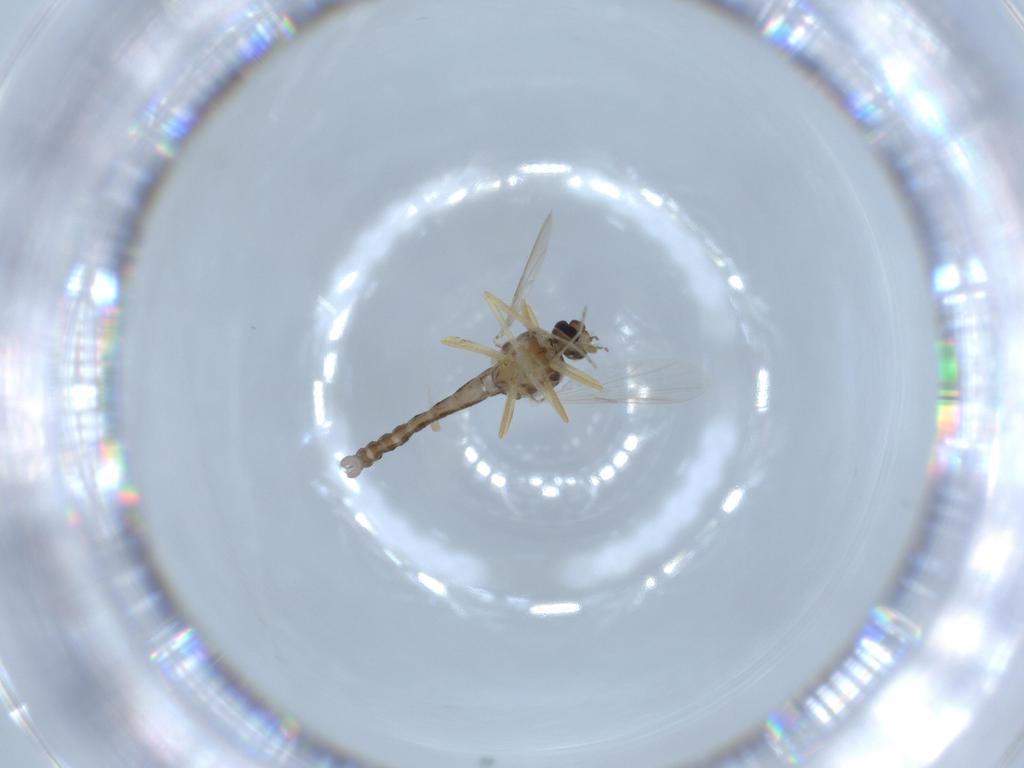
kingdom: Animalia
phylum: Arthropoda
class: Insecta
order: Diptera
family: Ceratopogonidae
